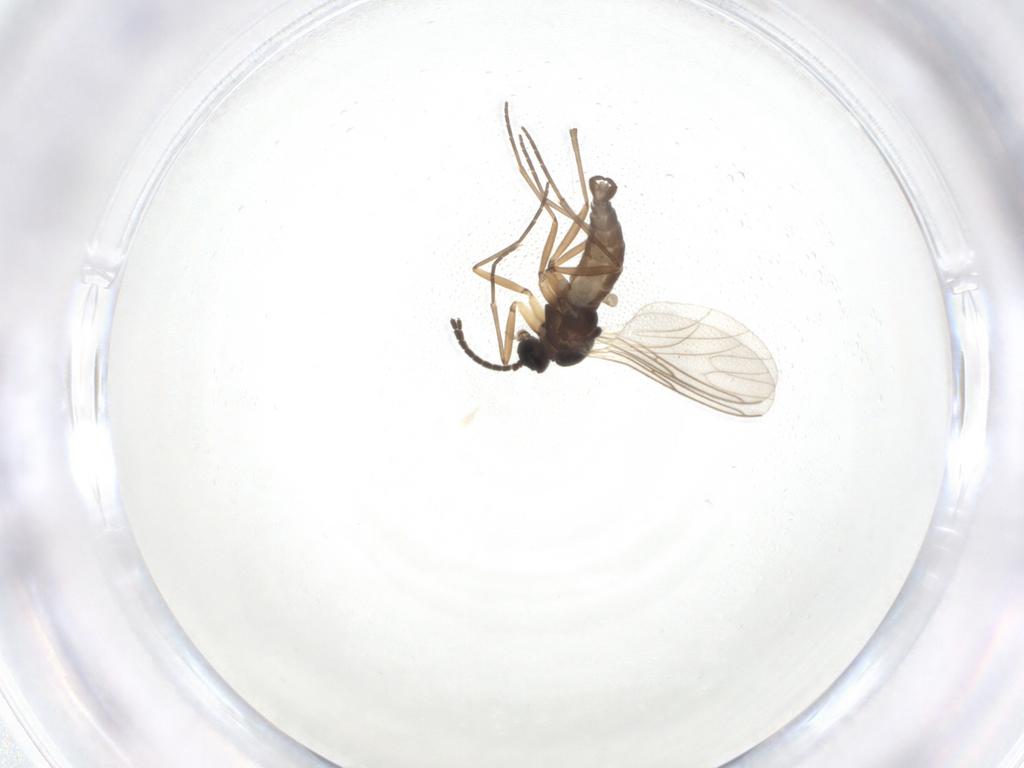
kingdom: Animalia
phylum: Arthropoda
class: Insecta
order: Diptera
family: Sciaridae
